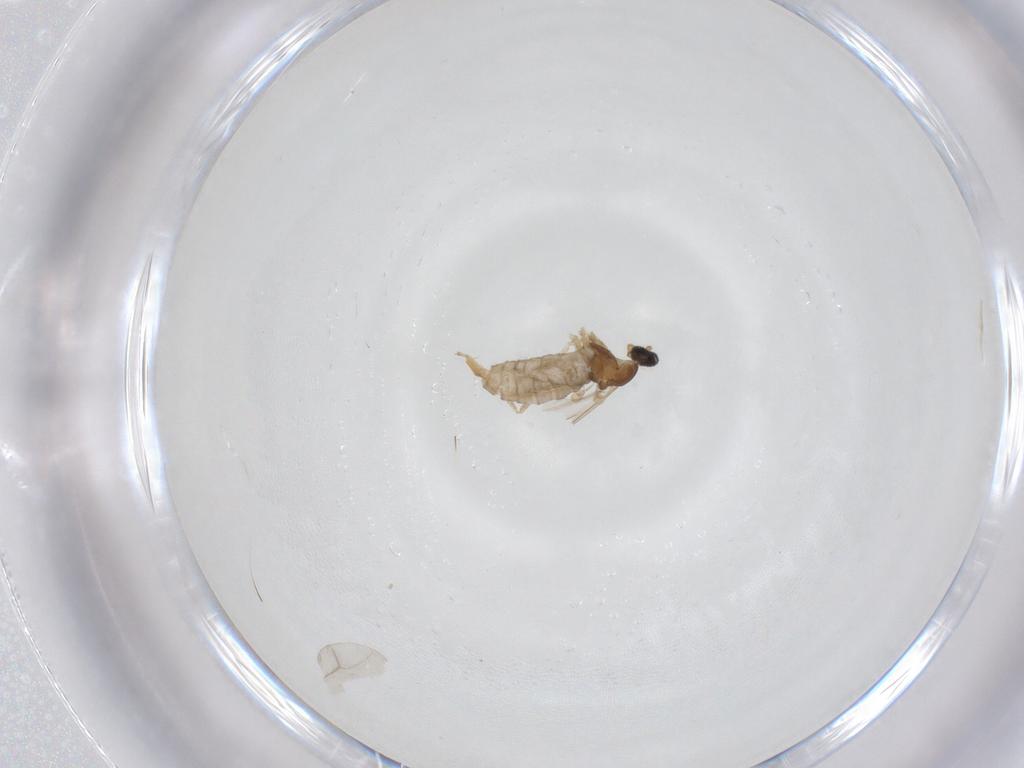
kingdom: Animalia
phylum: Arthropoda
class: Insecta
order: Diptera
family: Cecidomyiidae
